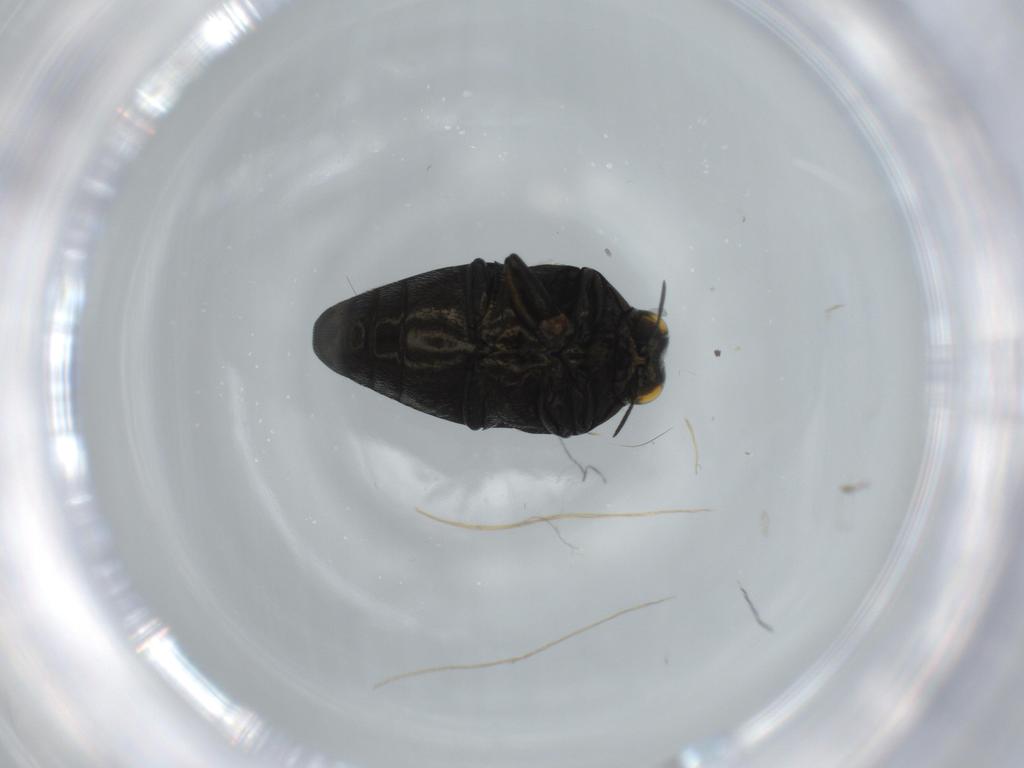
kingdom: Animalia
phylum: Arthropoda
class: Insecta
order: Coleoptera
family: Buprestidae
